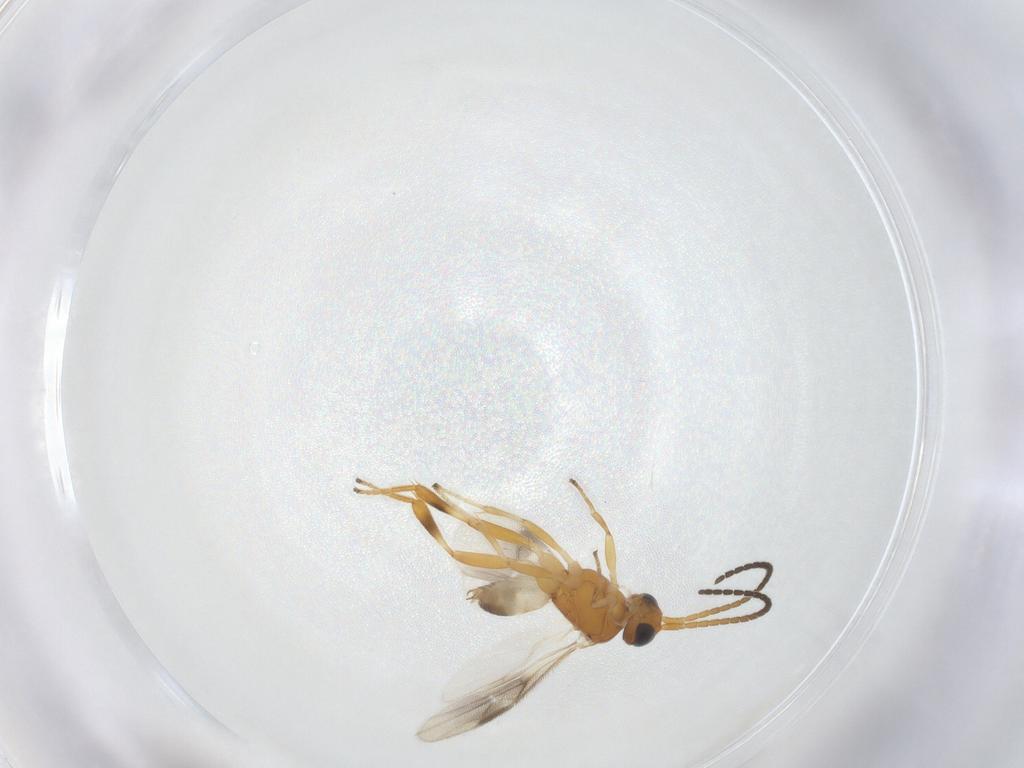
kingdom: Animalia
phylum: Arthropoda
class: Insecta
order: Hymenoptera
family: Braconidae
